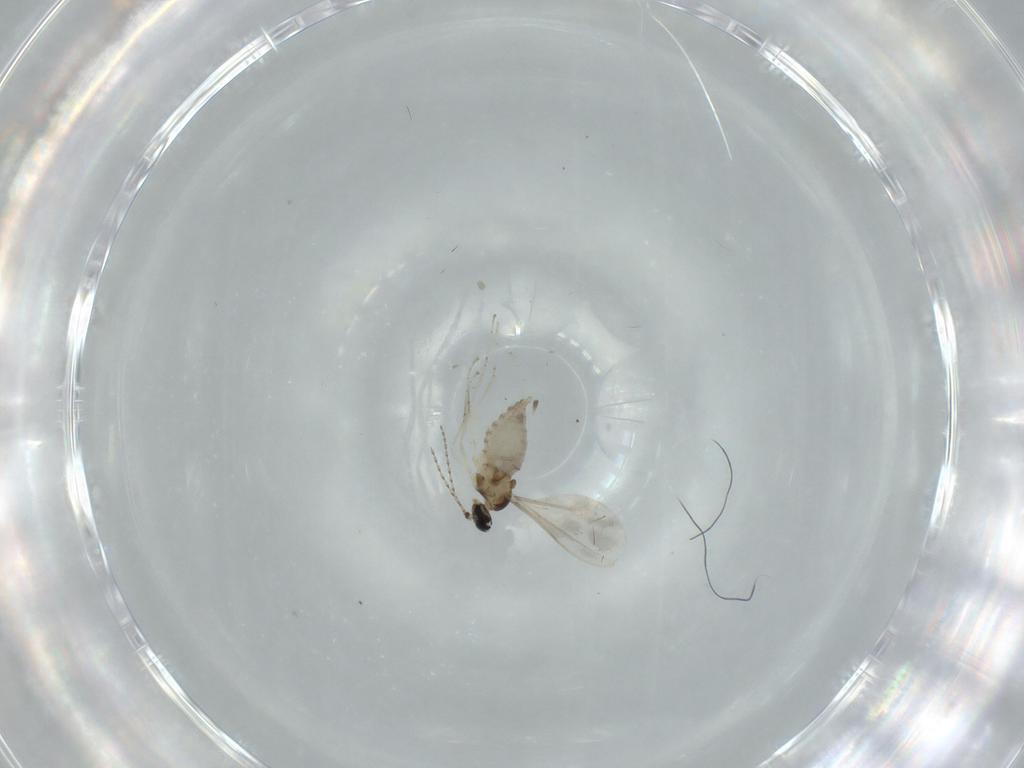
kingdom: Animalia
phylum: Arthropoda
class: Insecta
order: Diptera
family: Cecidomyiidae
